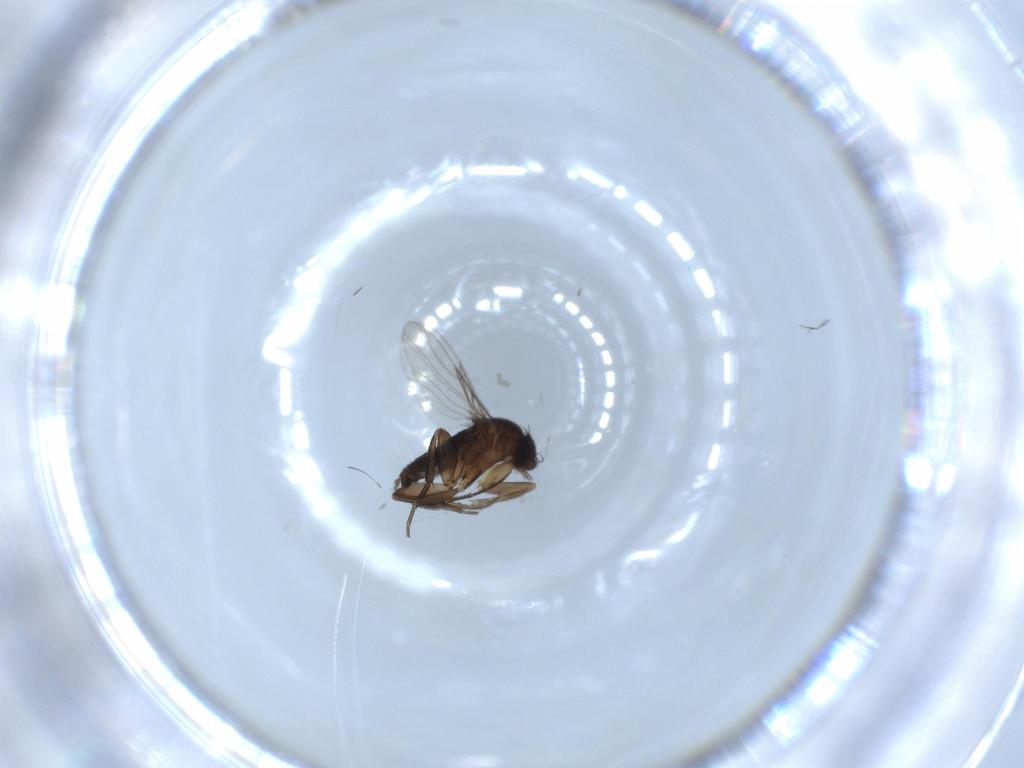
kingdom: Animalia
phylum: Arthropoda
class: Insecta
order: Diptera
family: Phoridae
